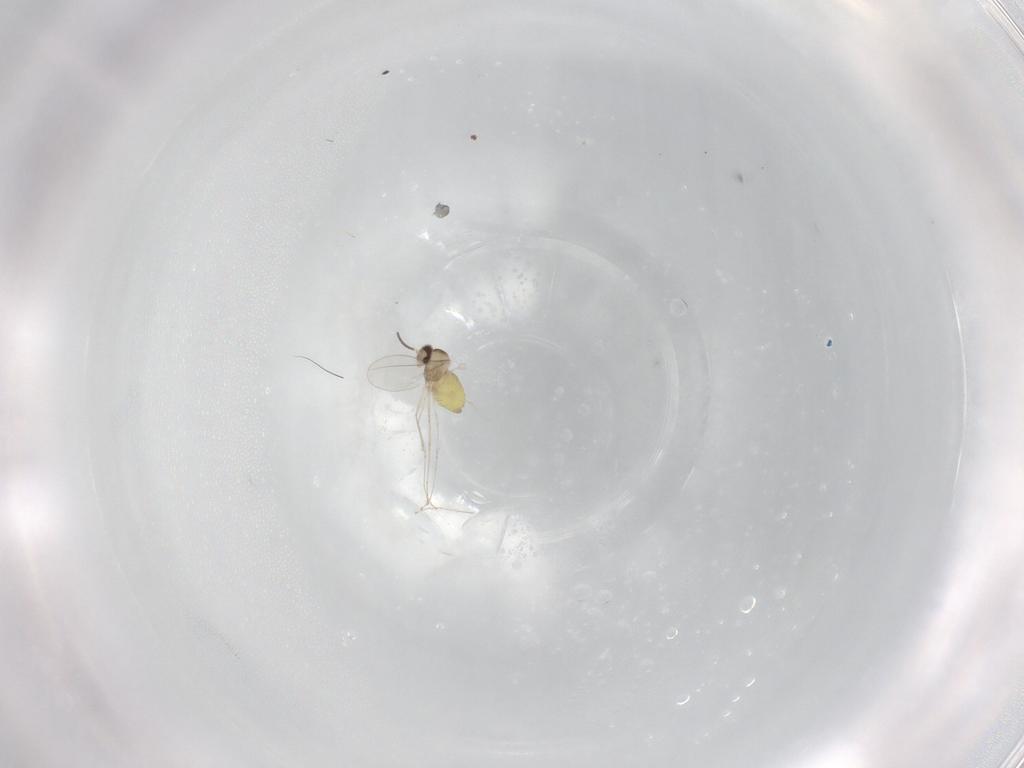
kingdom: Animalia
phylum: Arthropoda
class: Insecta
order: Diptera
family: Cecidomyiidae
